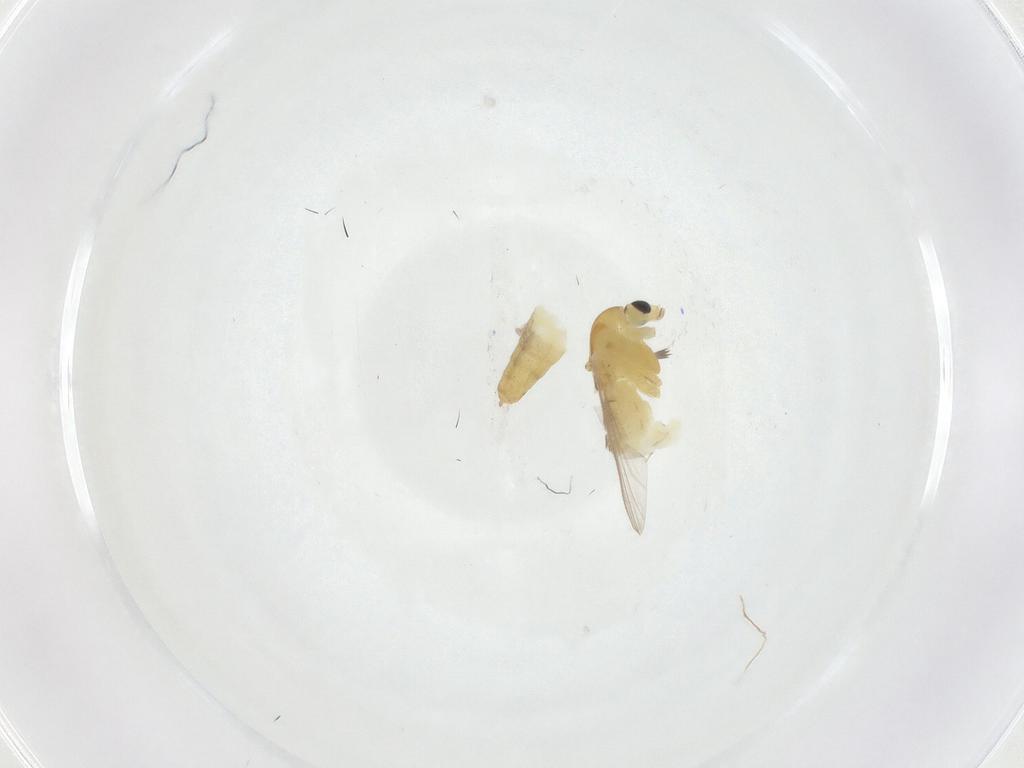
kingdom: Animalia
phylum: Arthropoda
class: Insecta
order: Diptera
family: Chironomidae
